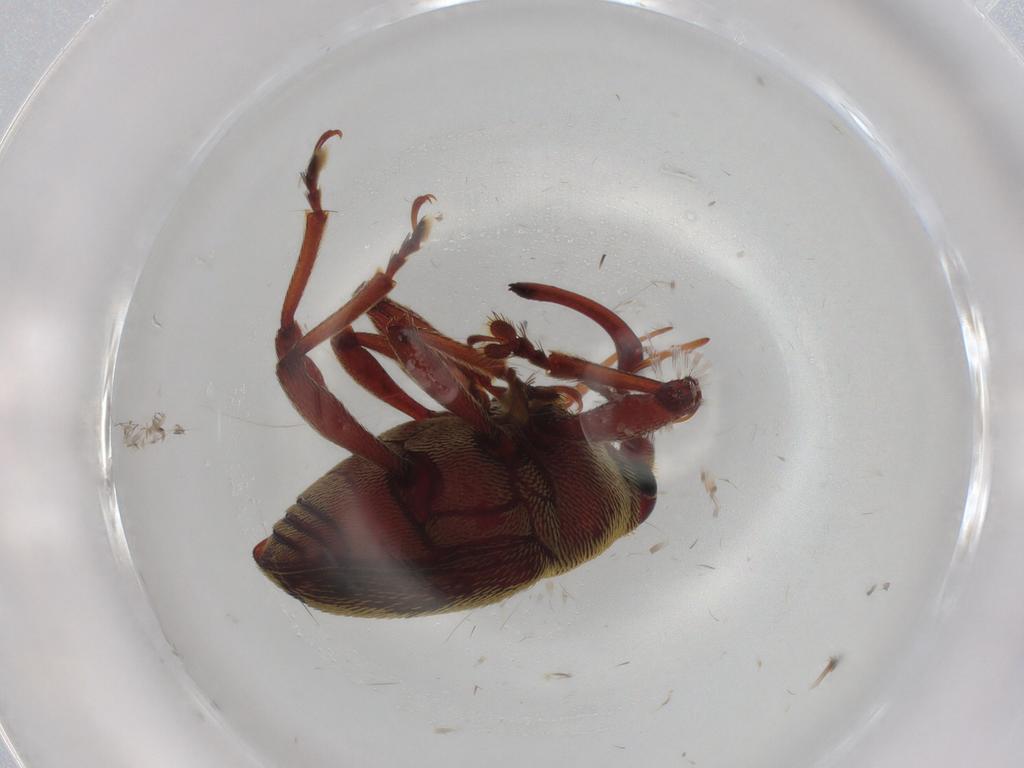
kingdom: Animalia
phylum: Arthropoda
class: Insecta
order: Coleoptera
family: Curculionidae
